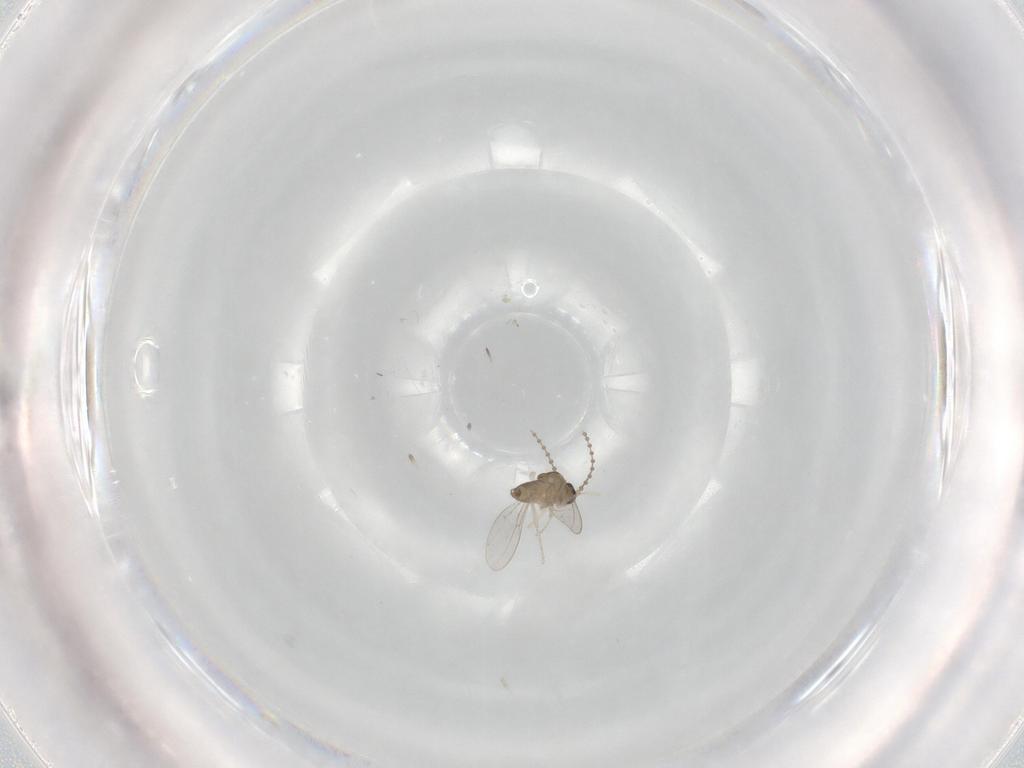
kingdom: Animalia
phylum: Arthropoda
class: Insecta
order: Diptera
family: Cecidomyiidae
